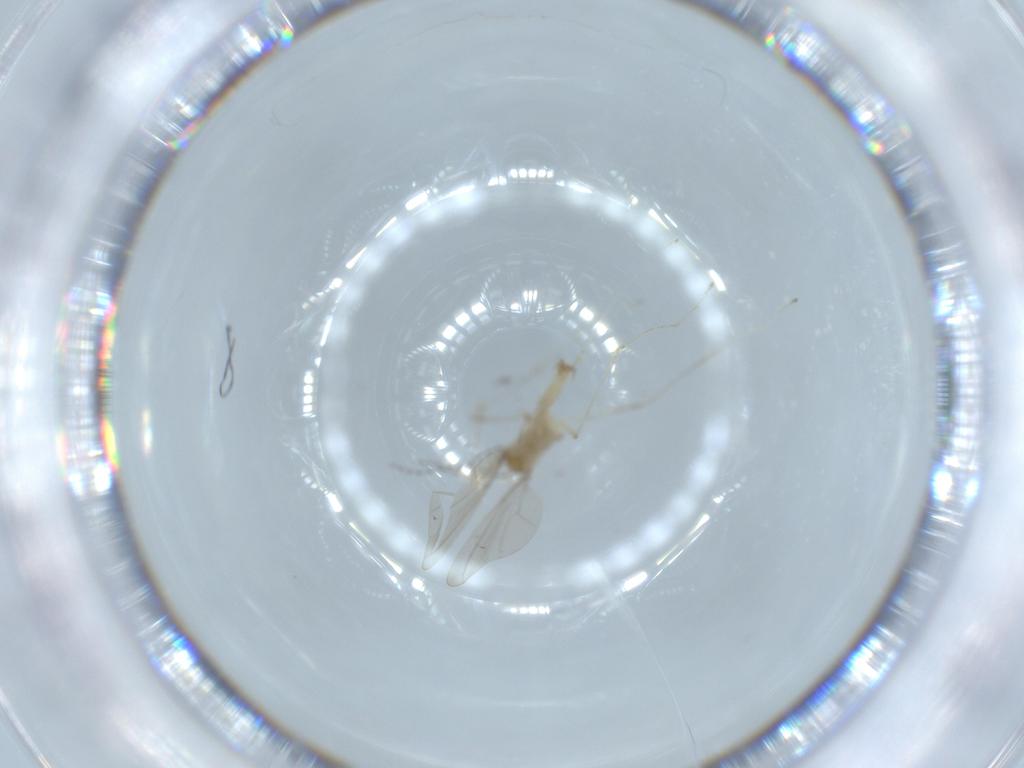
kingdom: Animalia
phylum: Arthropoda
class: Insecta
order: Diptera
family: Cecidomyiidae
